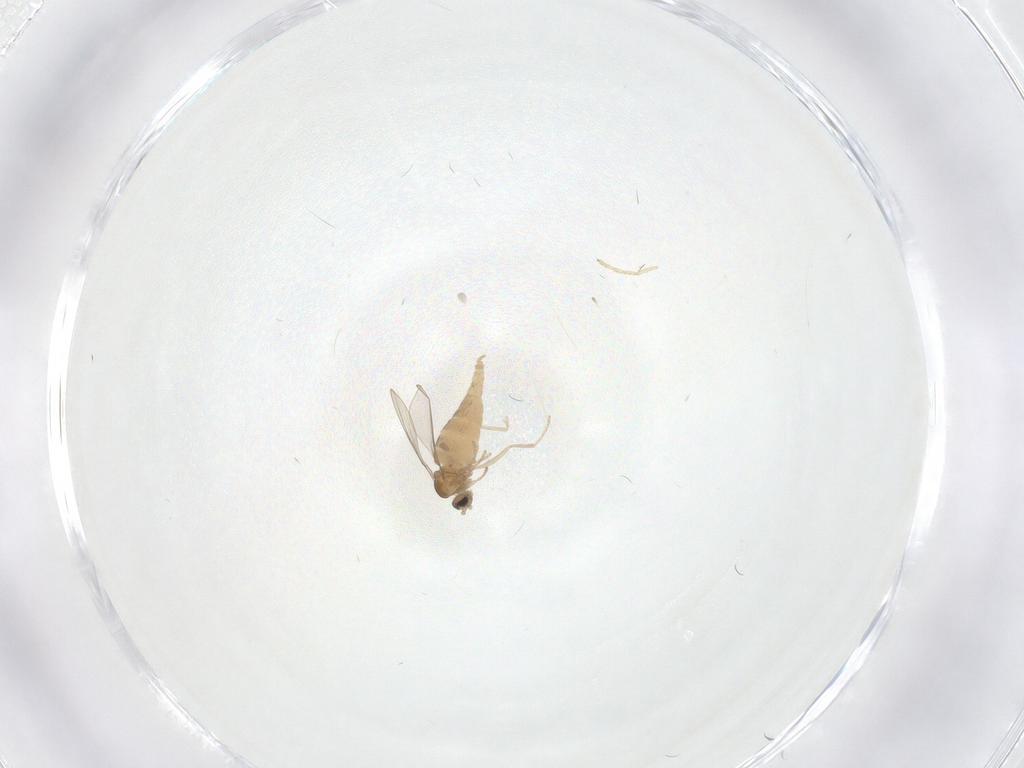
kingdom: Animalia
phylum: Arthropoda
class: Insecta
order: Diptera
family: Cecidomyiidae
